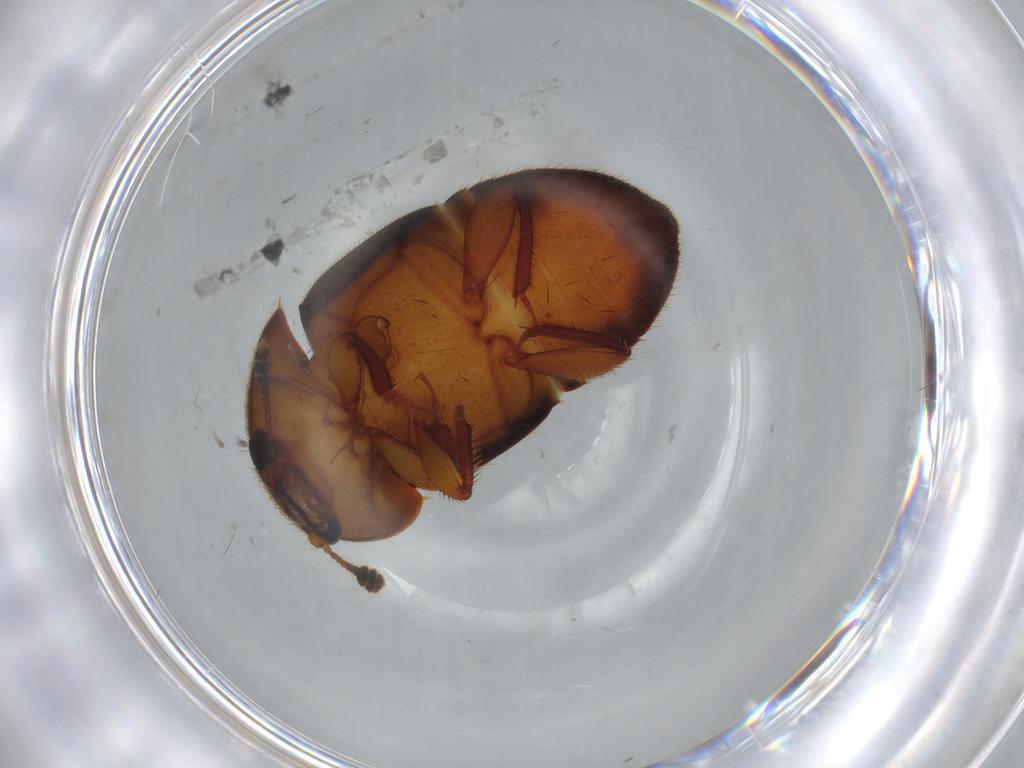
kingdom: Animalia
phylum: Arthropoda
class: Insecta
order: Coleoptera
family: Nitidulidae
